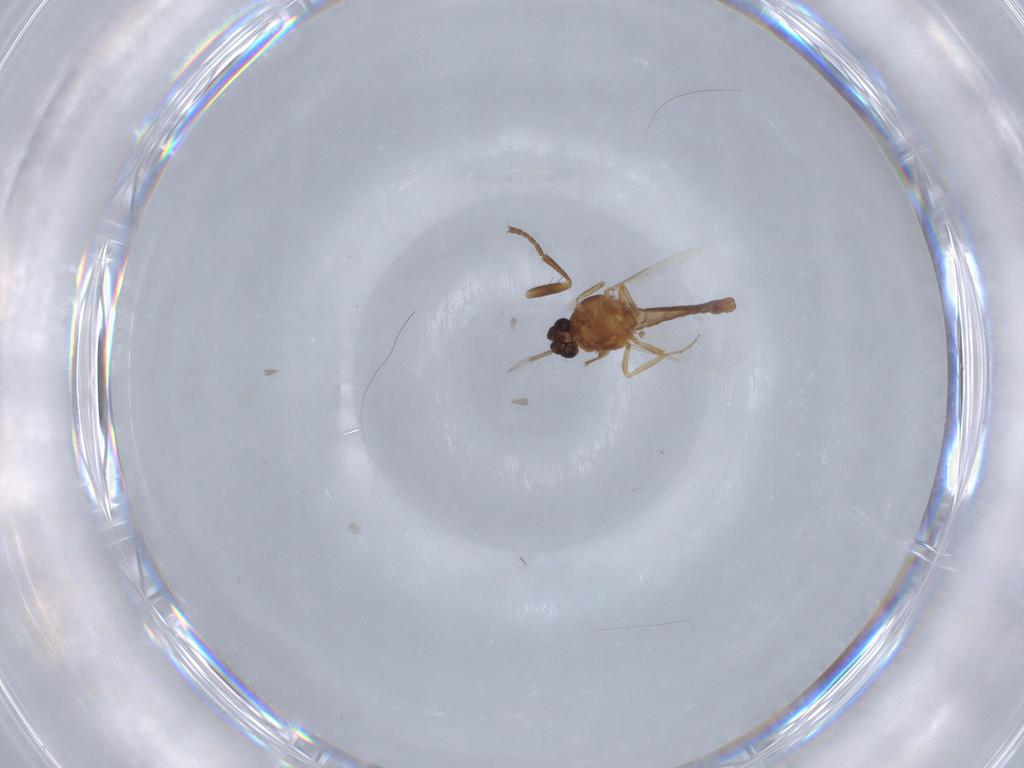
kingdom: Animalia
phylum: Arthropoda
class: Insecta
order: Diptera
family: Ceratopogonidae
